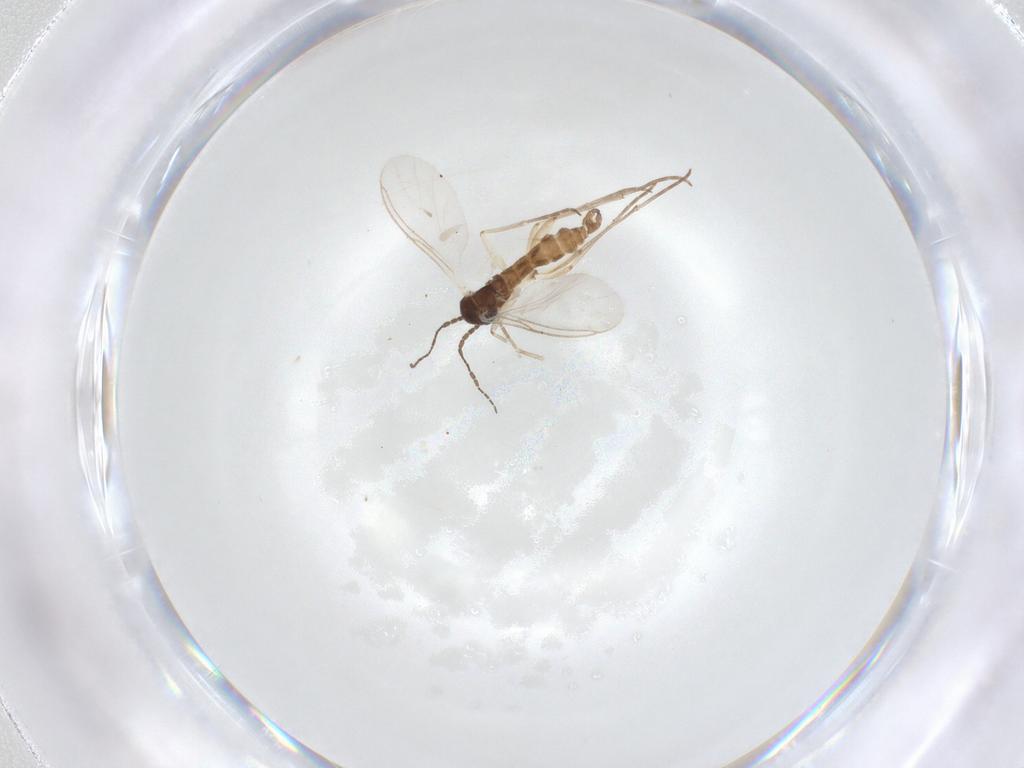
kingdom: Animalia
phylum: Arthropoda
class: Insecta
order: Diptera
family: Sciaridae
